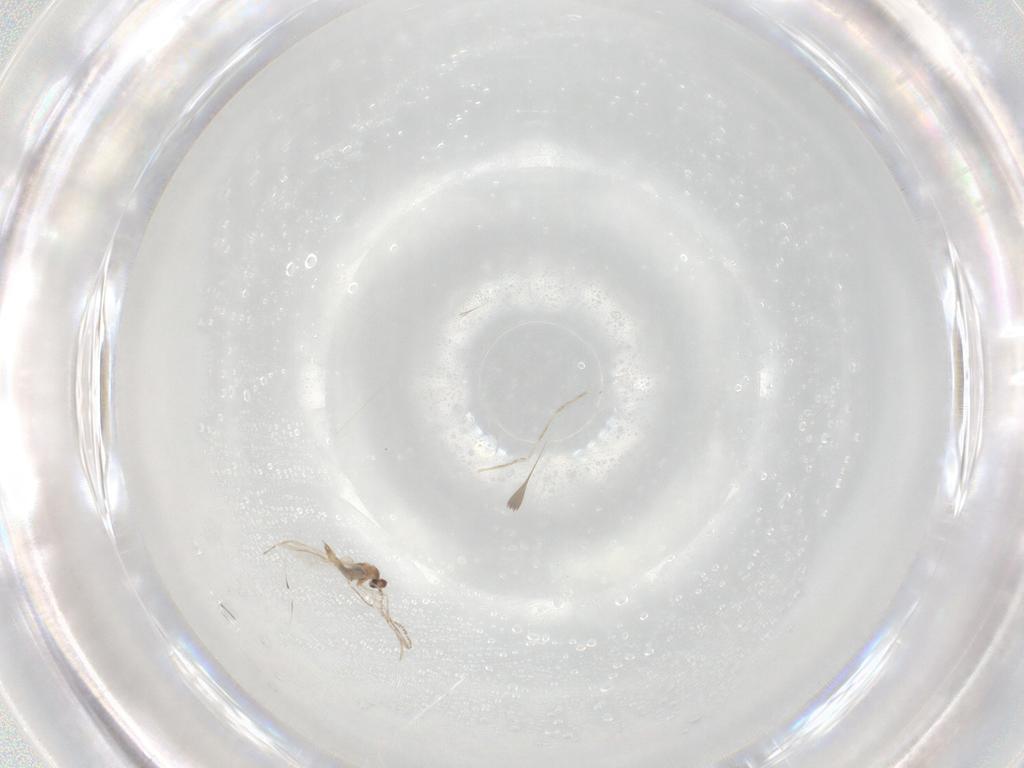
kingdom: Animalia
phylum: Arthropoda
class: Insecta
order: Diptera
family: Cecidomyiidae
